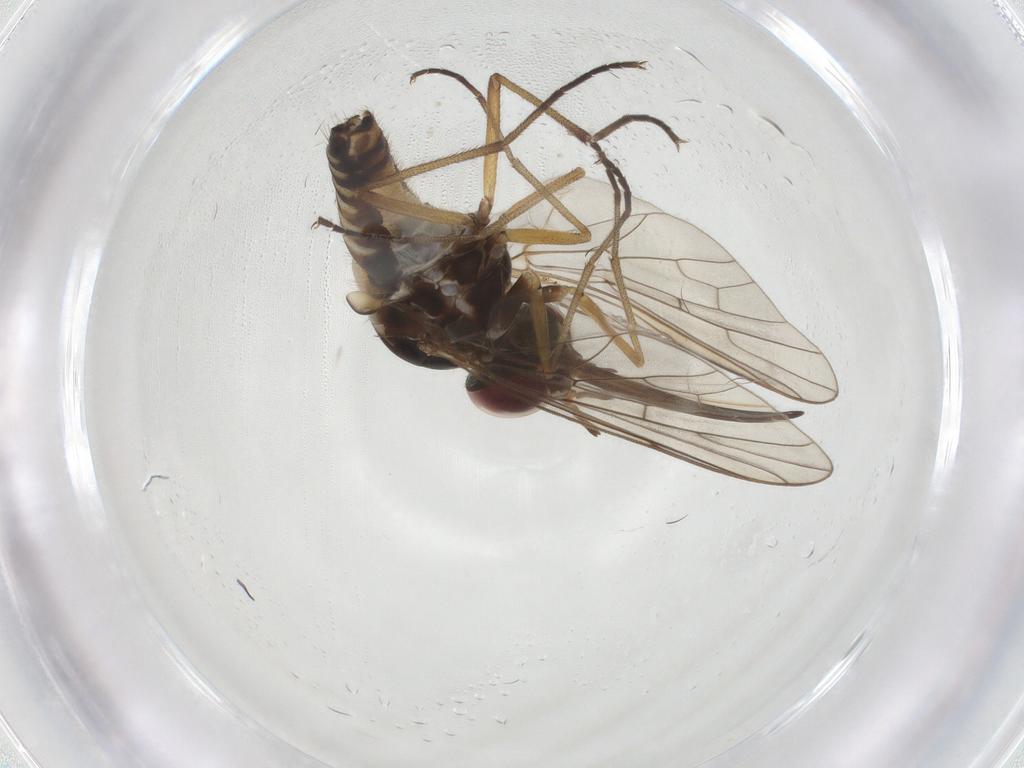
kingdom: Animalia
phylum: Arthropoda
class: Insecta
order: Diptera
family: Bombyliidae
